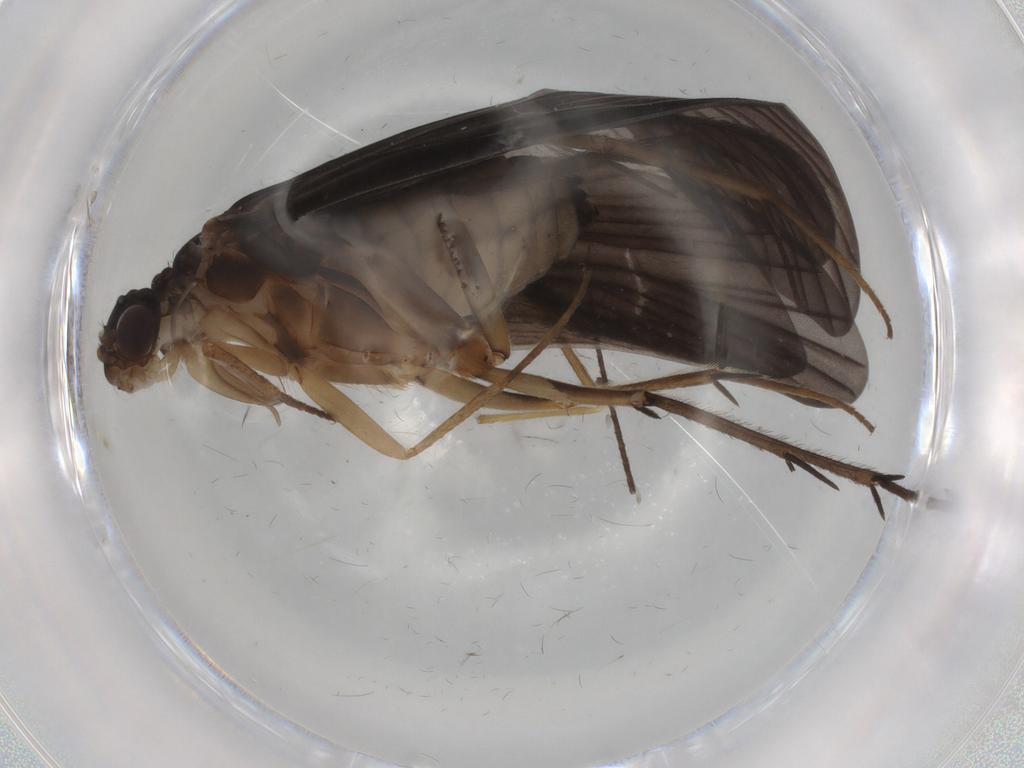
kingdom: Animalia
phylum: Arthropoda
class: Insecta
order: Trichoptera
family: Philopotamidae
